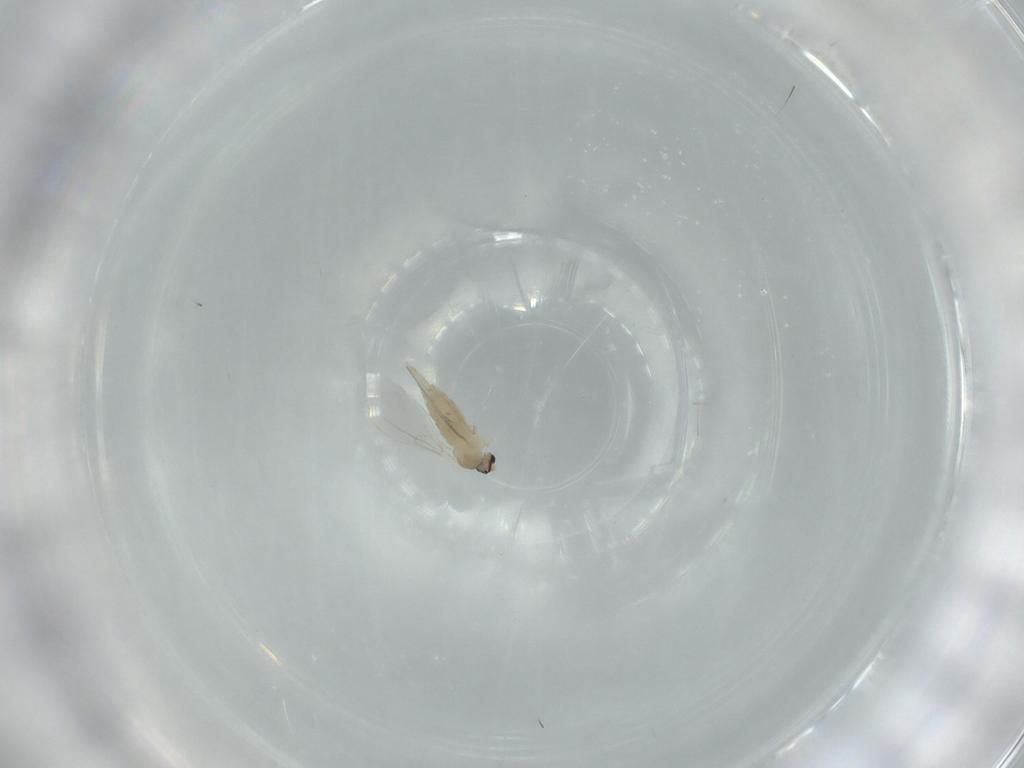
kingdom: Animalia
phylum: Arthropoda
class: Insecta
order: Diptera
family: Cecidomyiidae
